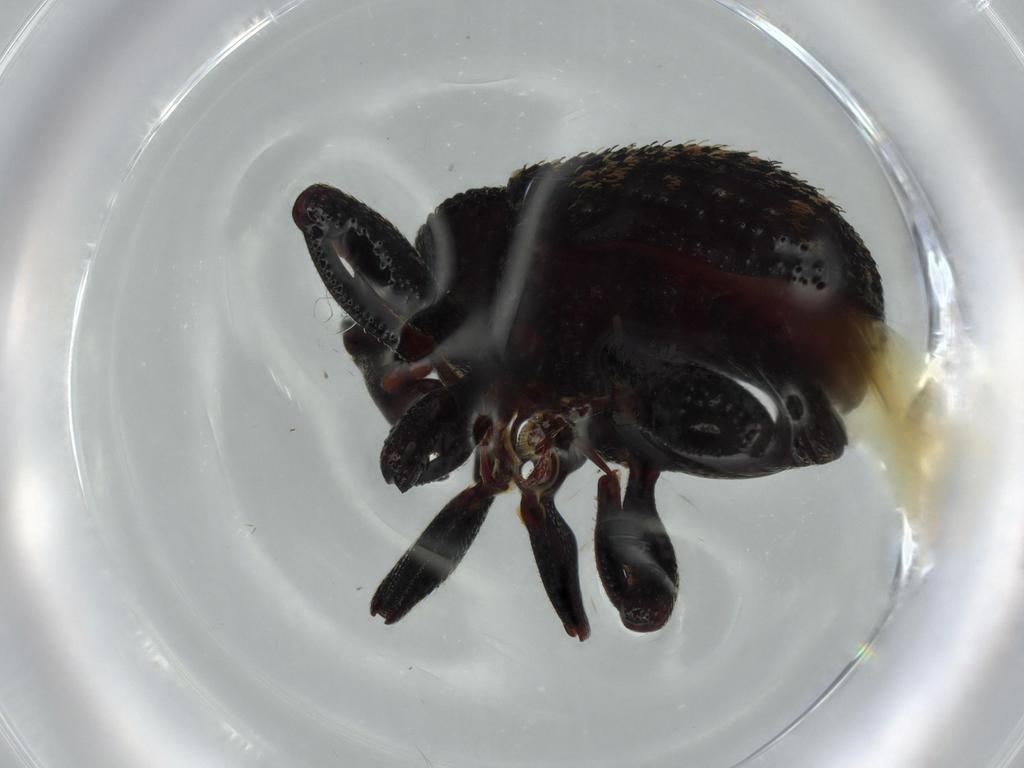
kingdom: Animalia
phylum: Arthropoda
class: Insecta
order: Coleoptera
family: Curculionidae
